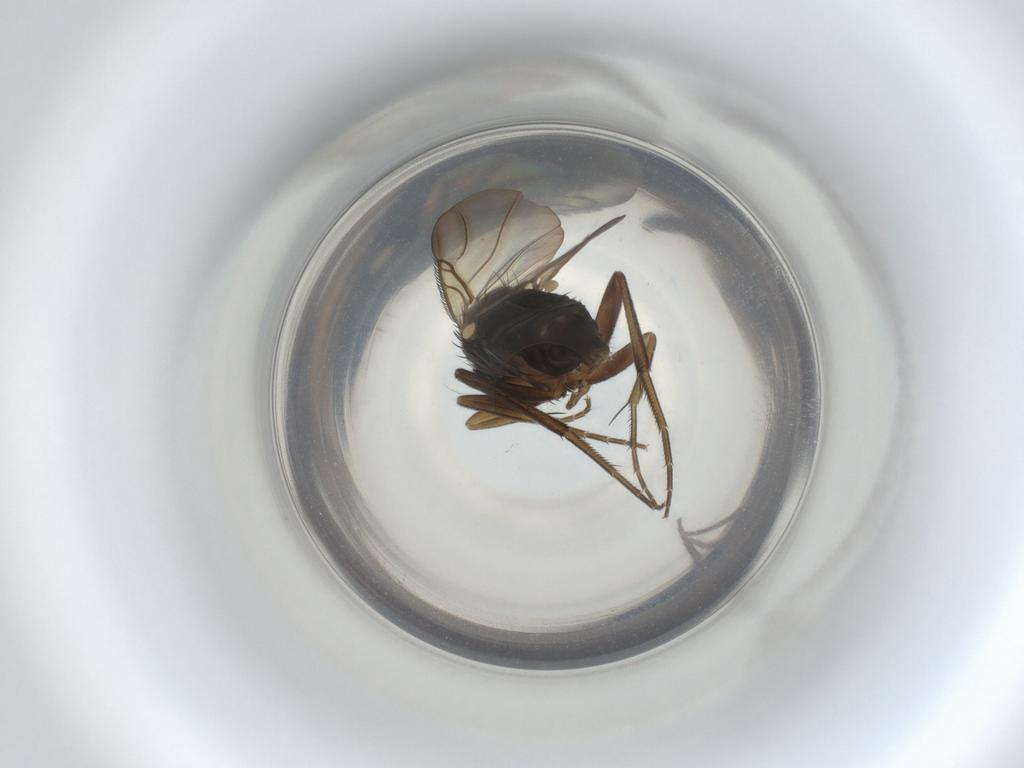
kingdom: Animalia
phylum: Arthropoda
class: Insecta
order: Diptera
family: Phoridae
